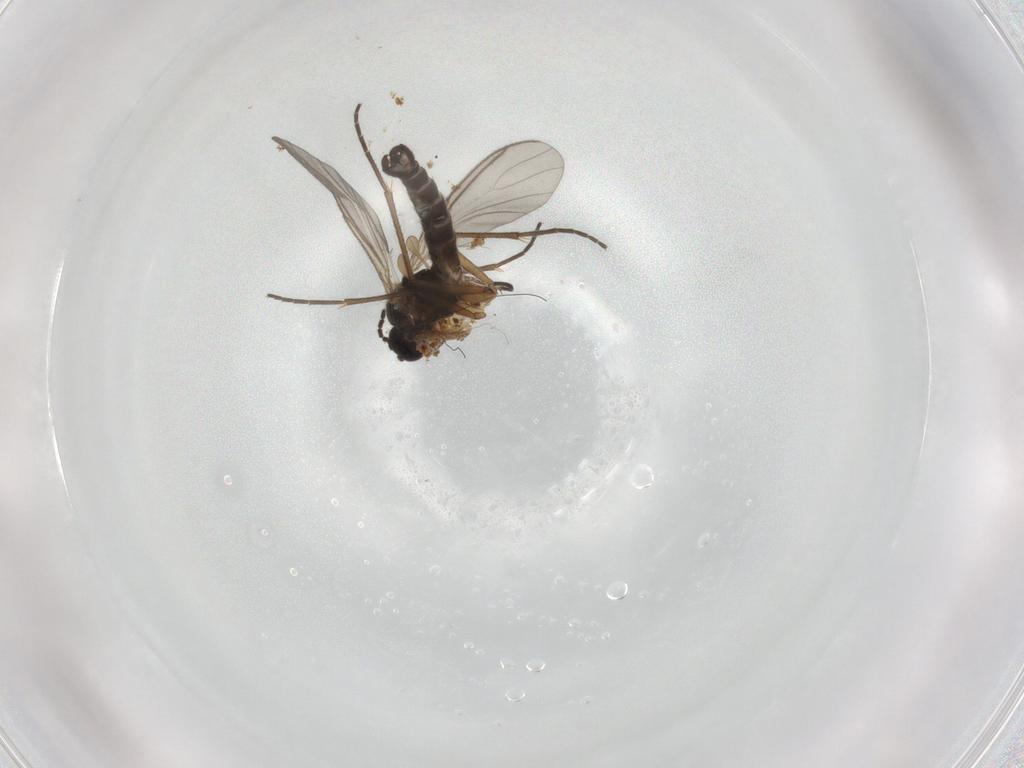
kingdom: Animalia
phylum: Arthropoda
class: Insecta
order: Diptera
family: Sciaridae
